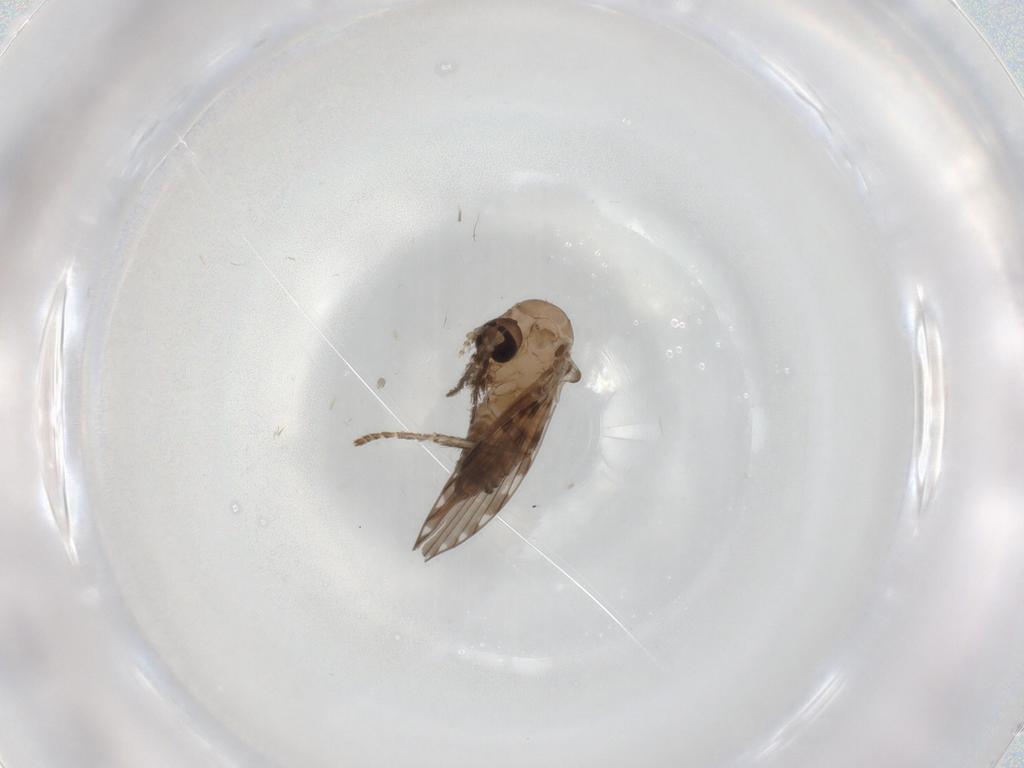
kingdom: Animalia
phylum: Arthropoda
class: Insecta
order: Diptera
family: Psychodidae
